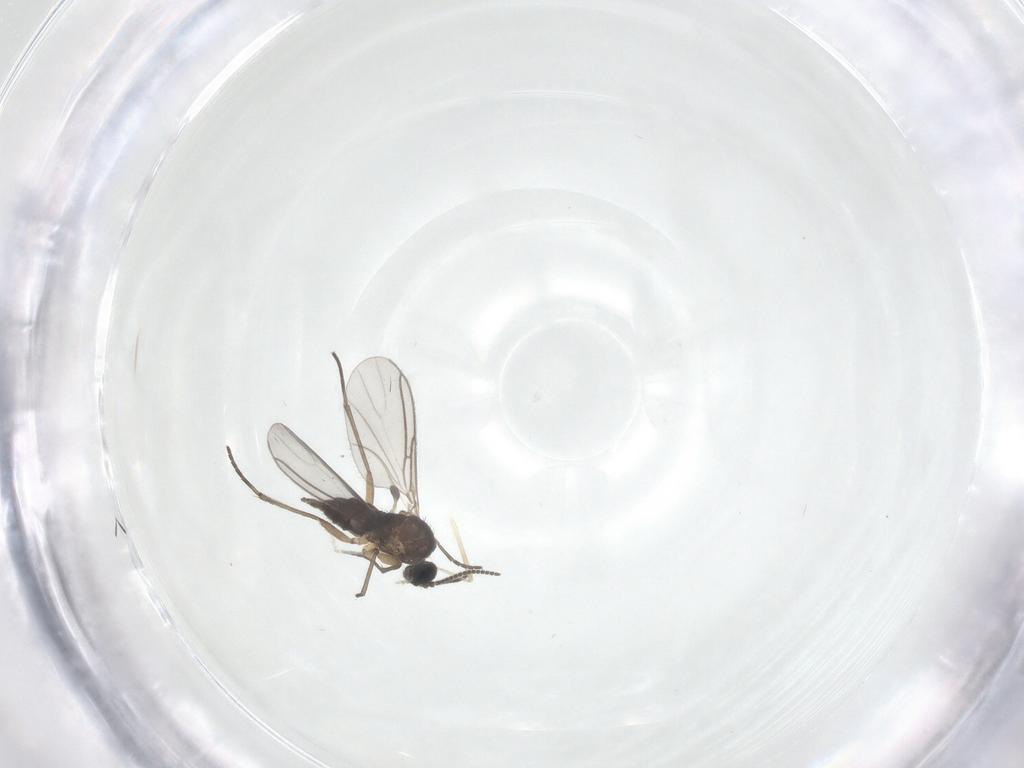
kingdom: Animalia
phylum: Arthropoda
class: Insecta
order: Diptera
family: Sciaridae
